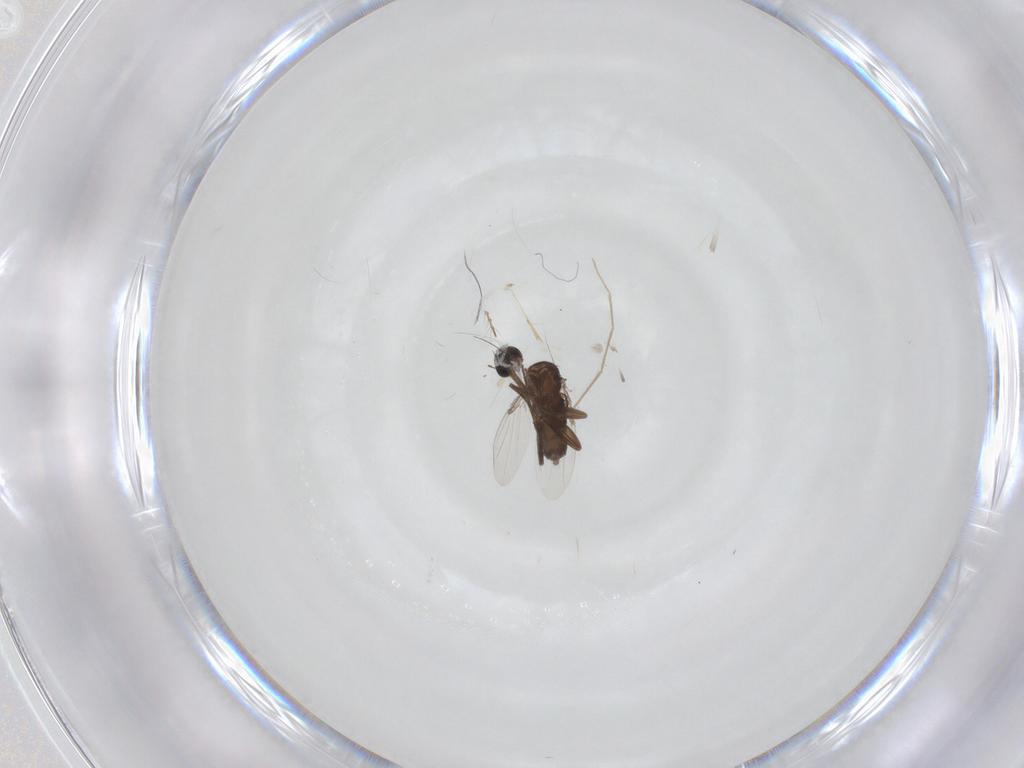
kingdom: Animalia
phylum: Arthropoda
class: Insecta
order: Diptera
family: Phoridae
